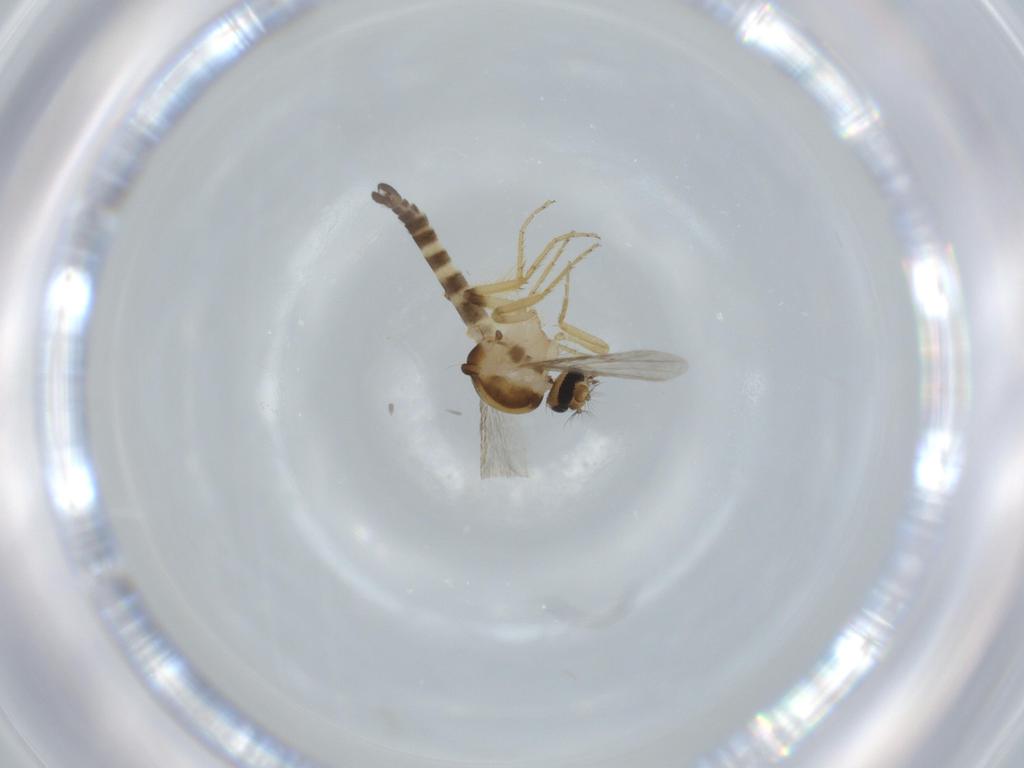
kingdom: Animalia
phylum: Arthropoda
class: Insecta
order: Diptera
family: Ceratopogonidae
